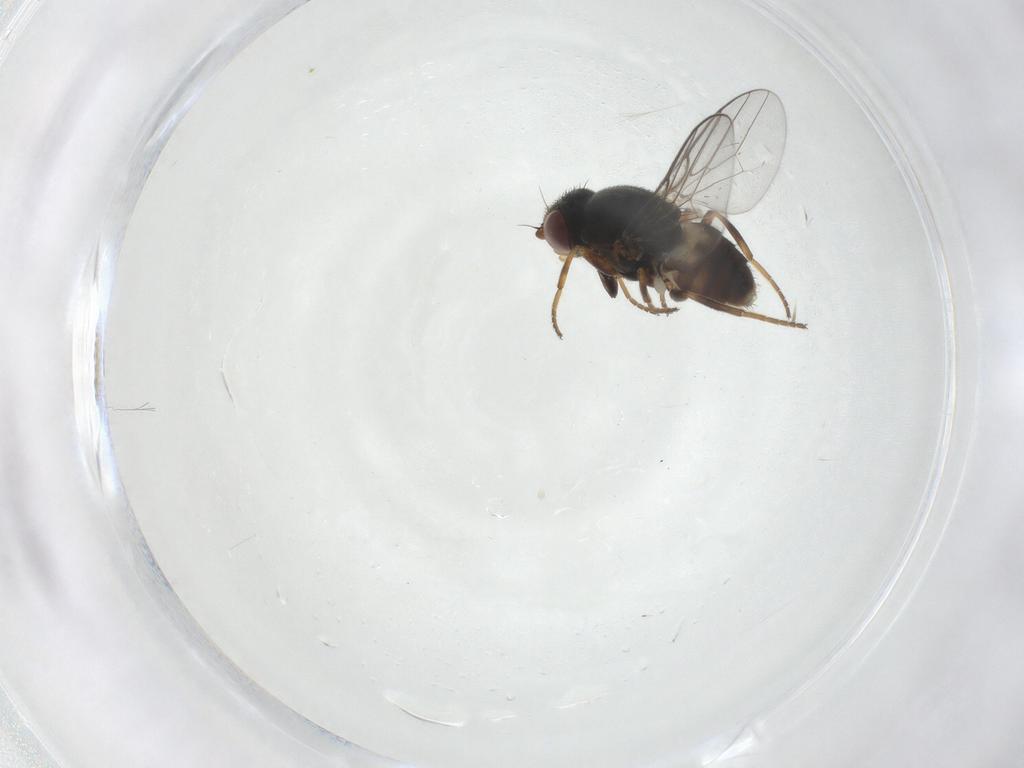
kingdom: Animalia
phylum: Arthropoda
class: Insecta
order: Diptera
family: Chloropidae
